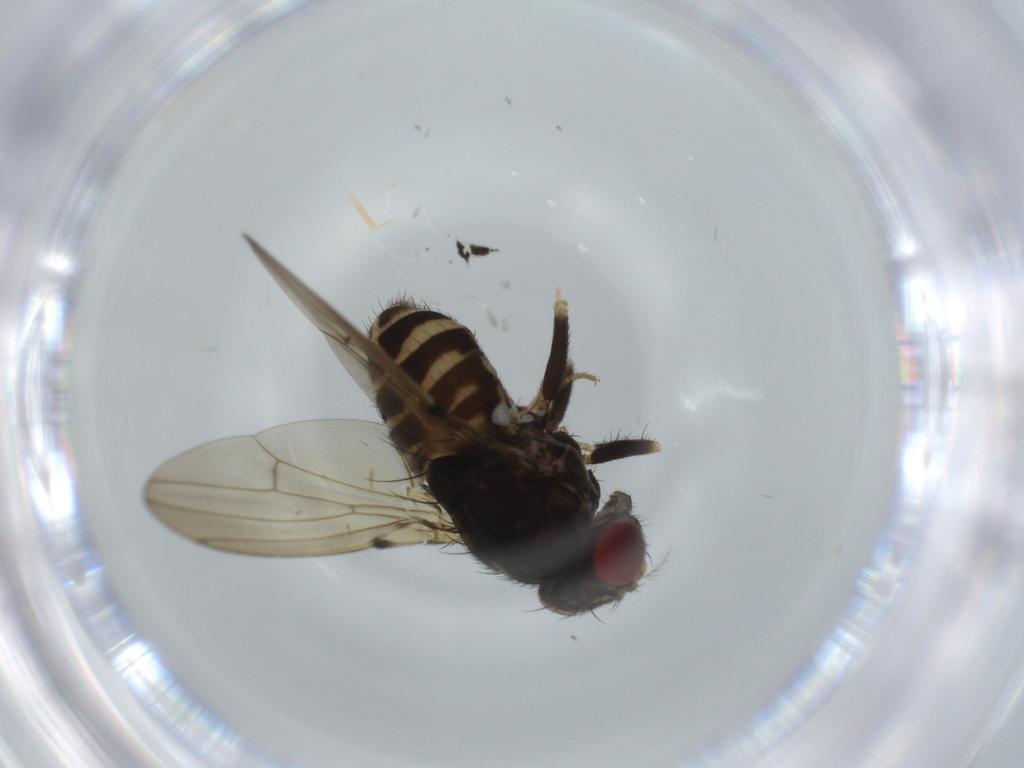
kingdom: Animalia
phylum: Arthropoda
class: Insecta
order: Diptera
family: Drosophilidae
